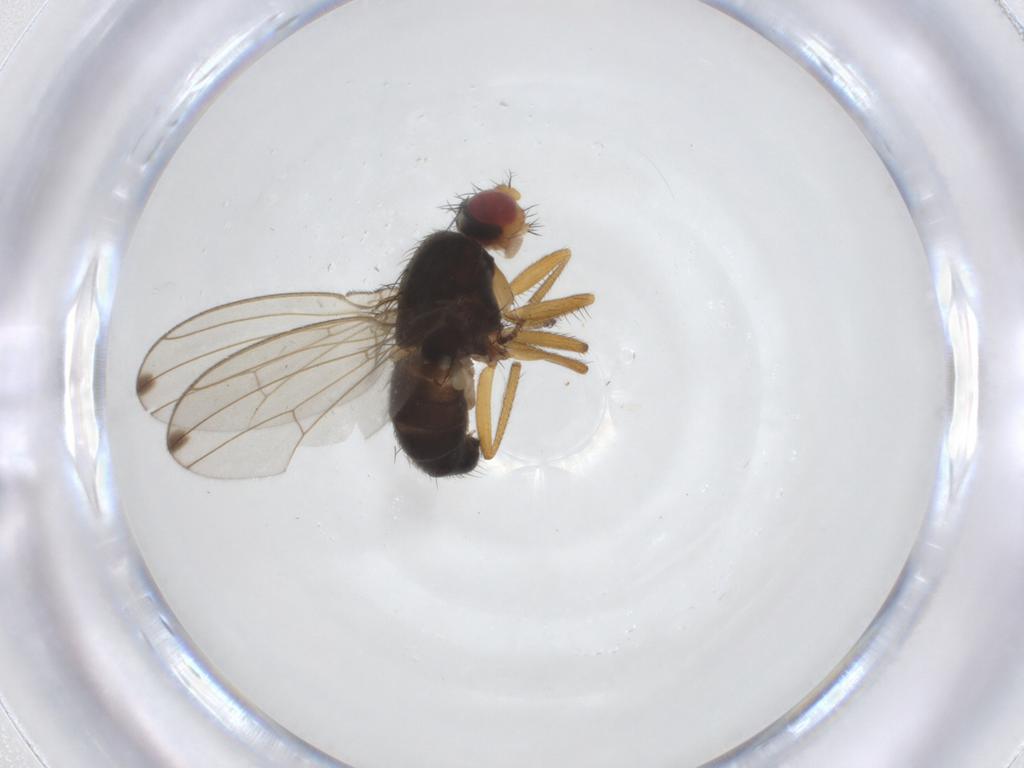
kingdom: Animalia
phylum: Arthropoda
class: Insecta
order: Diptera
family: Drosophilidae
